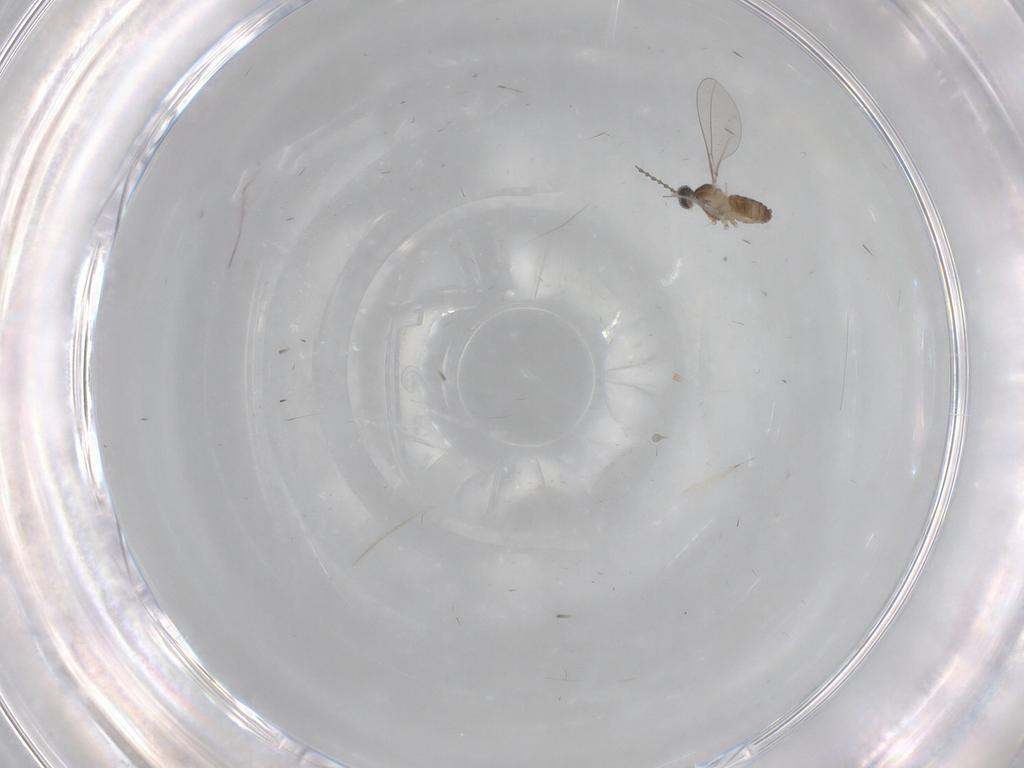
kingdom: Animalia
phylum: Arthropoda
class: Insecta
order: Diptera
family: Cecidomyiidae
